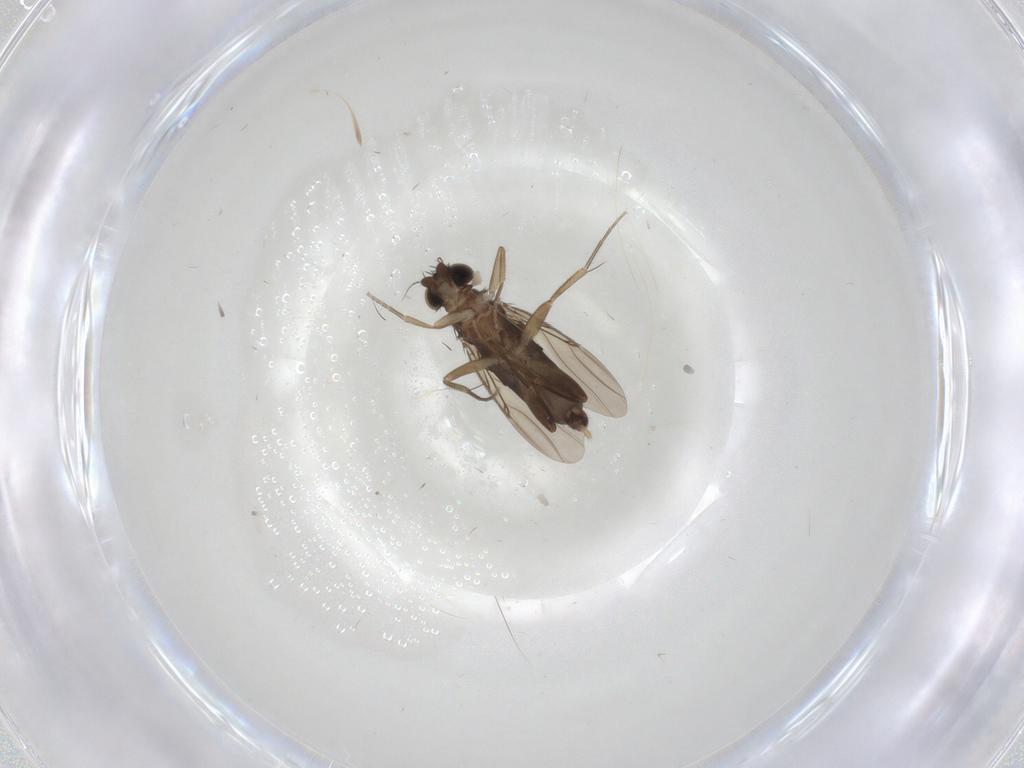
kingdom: Animalia
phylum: Arthropoda
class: Insecta
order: Diptera
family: Phoridae
